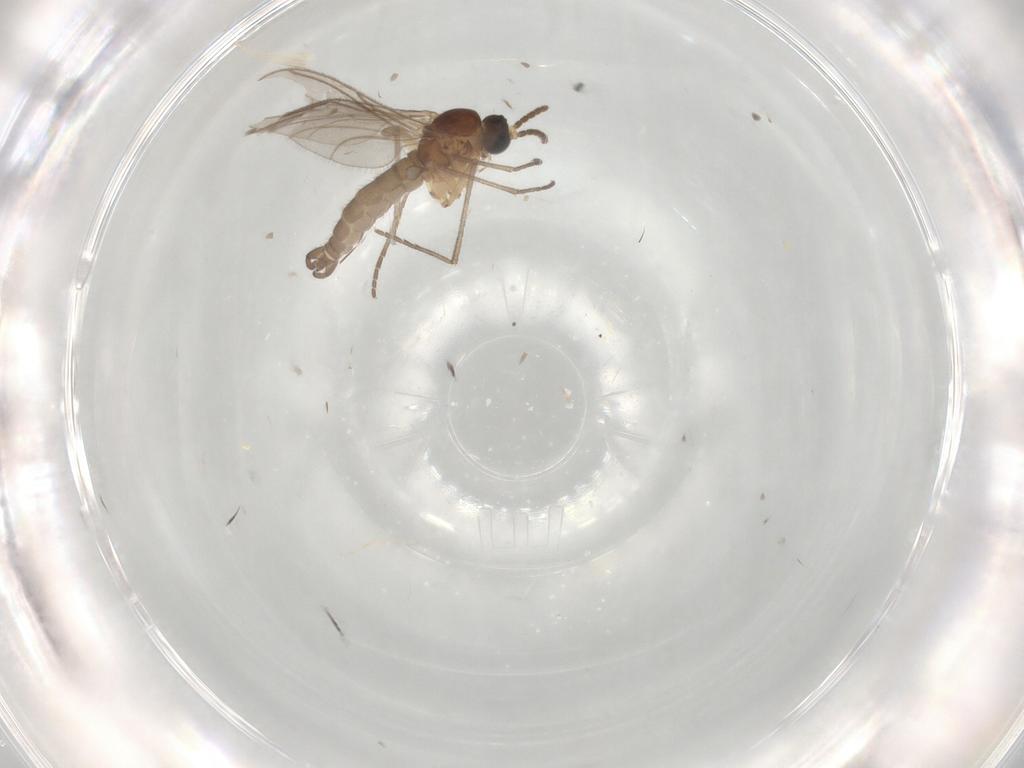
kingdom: Animalia
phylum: Arthropoda
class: Insecta
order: Diptera
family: Sciaridae
